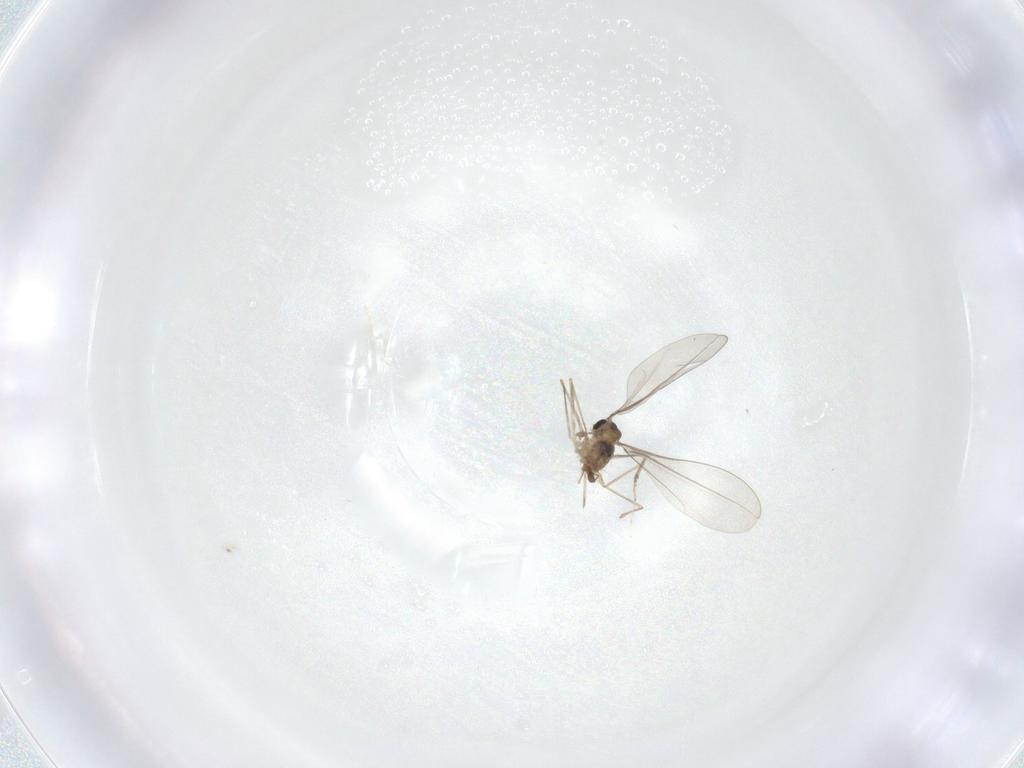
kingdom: Animalia
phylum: Arthropoda
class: Insecta
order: Diptera
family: Cecidomyiidae
